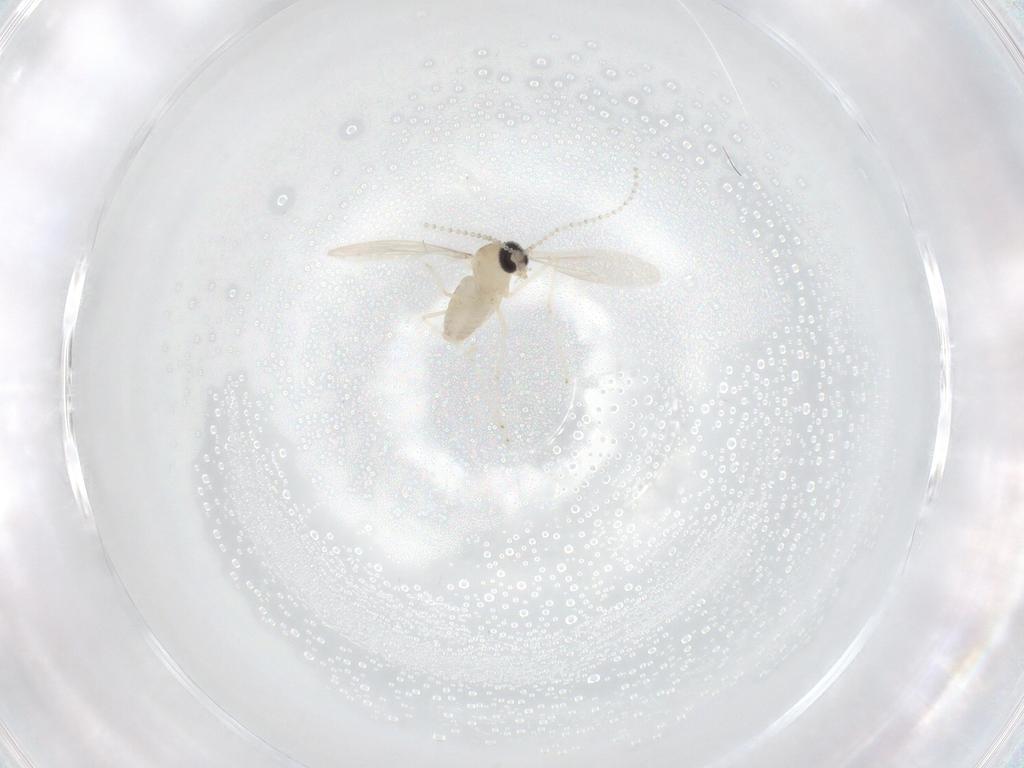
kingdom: Animalia
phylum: Arthropoda
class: Insecta
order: Diptera
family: Cecidomyiidae
